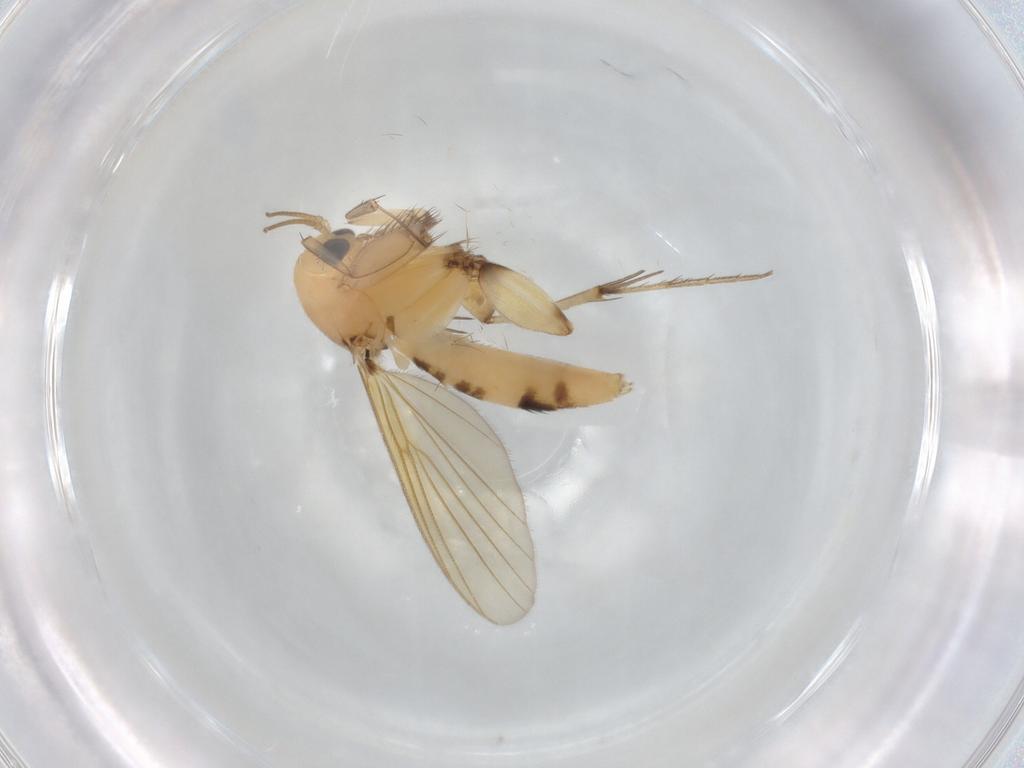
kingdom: Animalia
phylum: Arthropoda
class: Insecta
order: Diptera
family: Mycetophilidae
